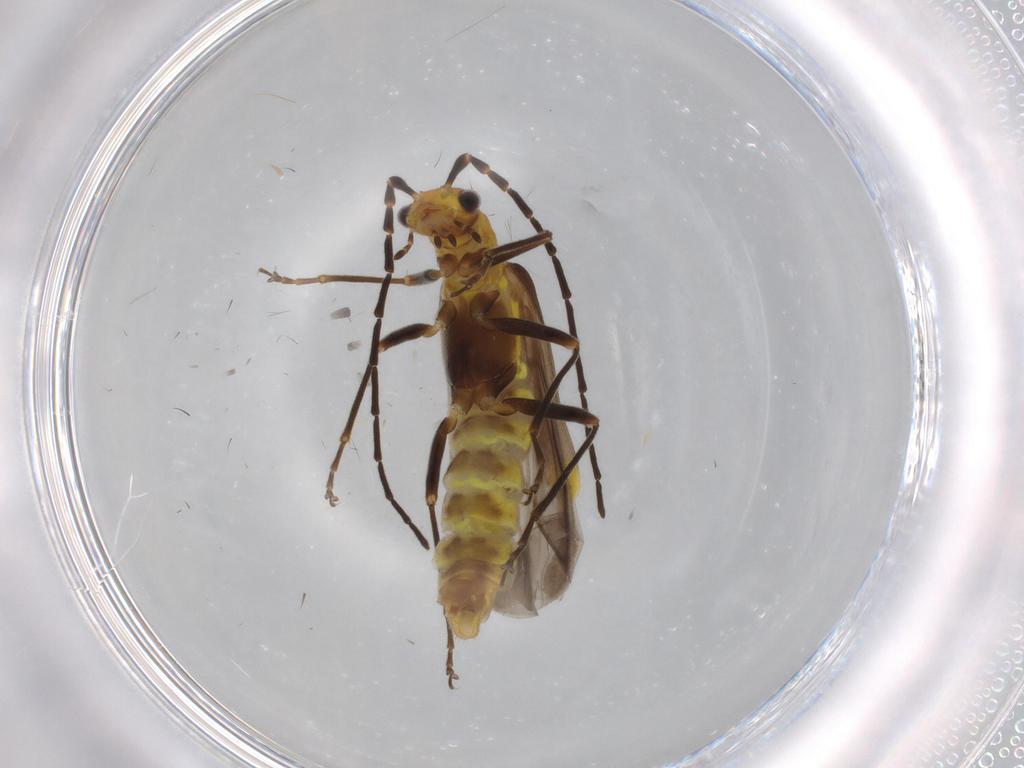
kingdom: Animalia
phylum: Arthropoda
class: Insecta
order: Coleoptera
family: Cantharidae
